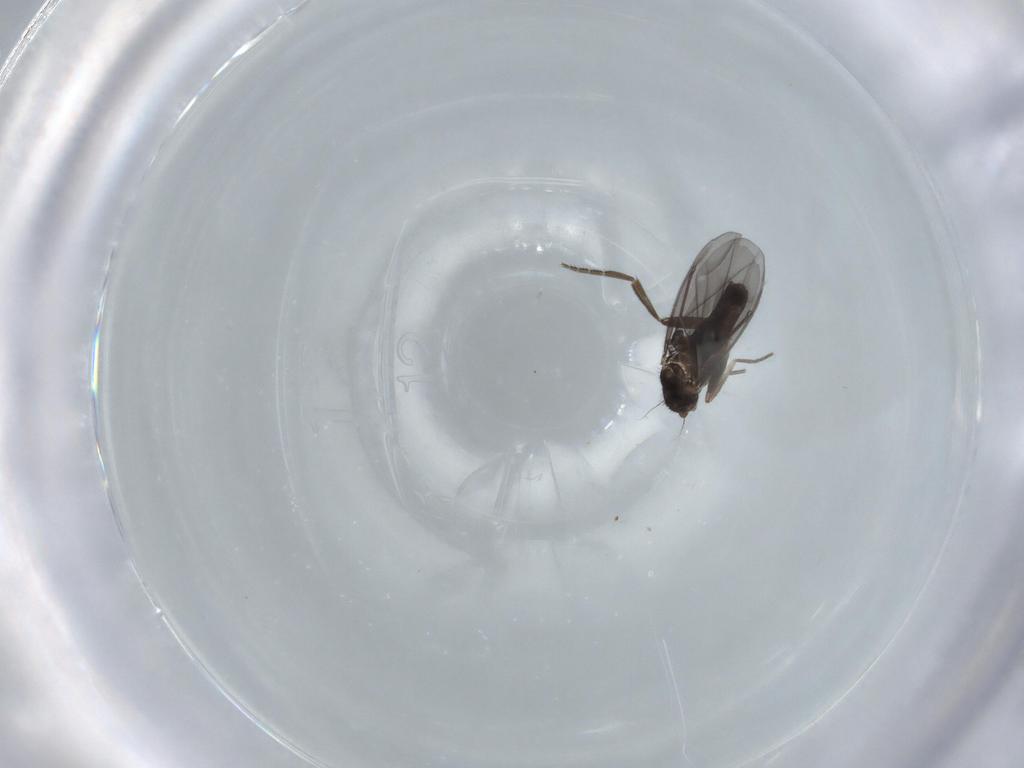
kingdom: Animalia
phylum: Arthropoda
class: Insecta
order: Diptera
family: Phoridae
